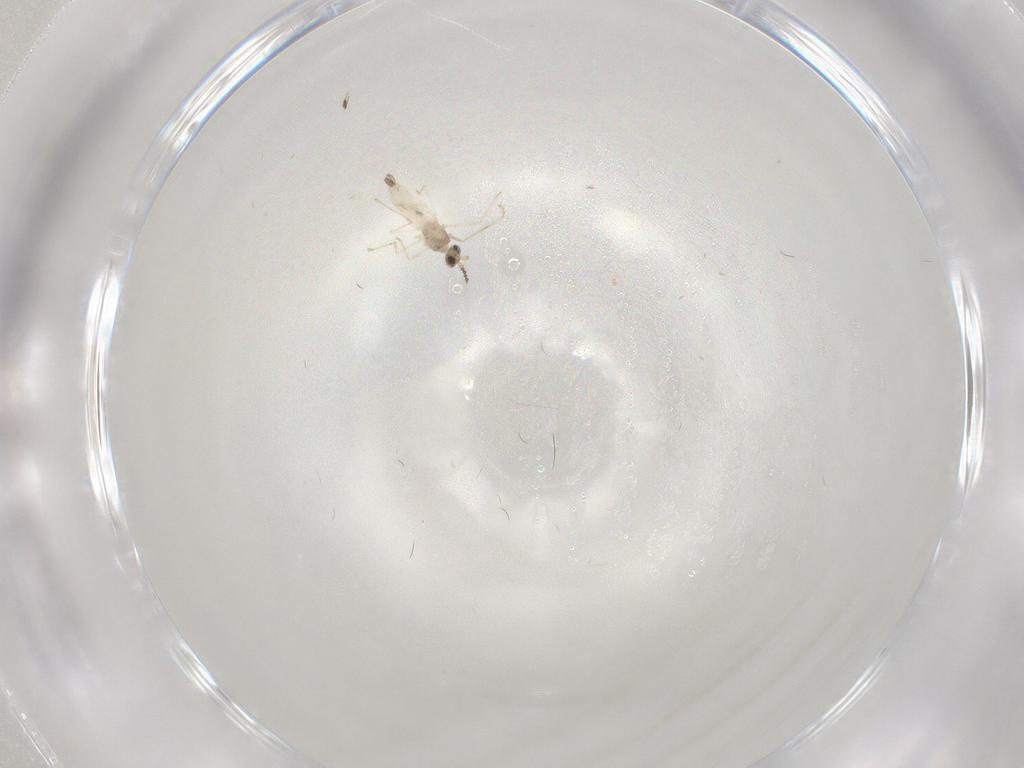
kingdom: Animalia
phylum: Arthropoda
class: Insecta
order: Diptera
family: Cecidomyiidae
